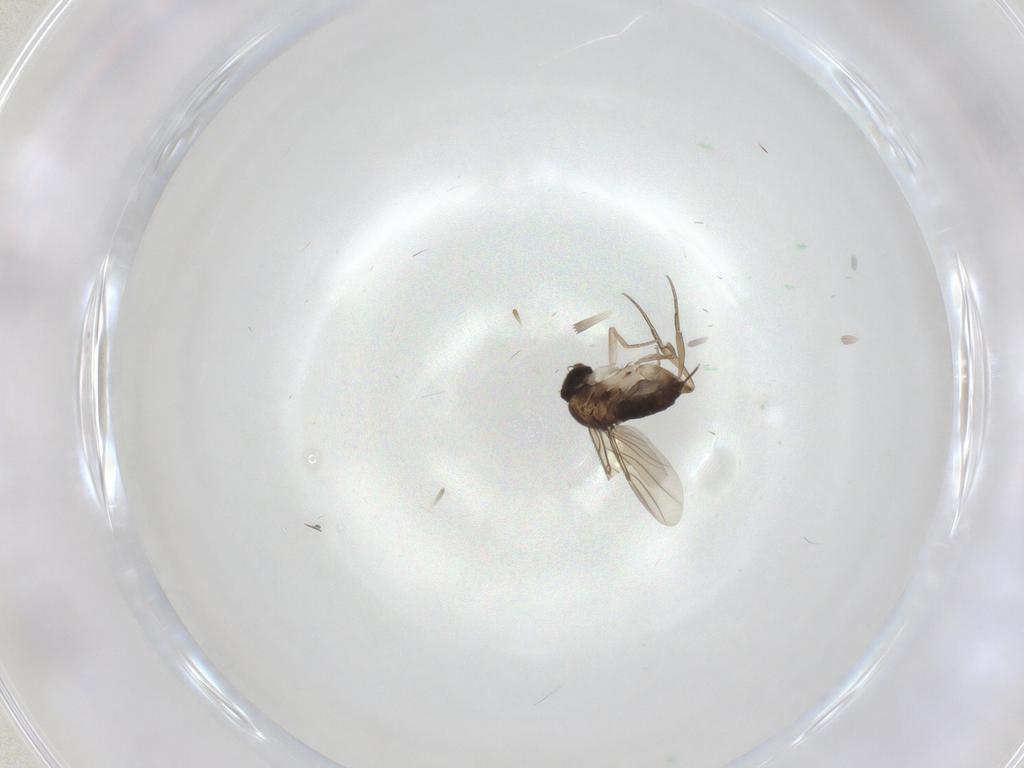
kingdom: Animalia
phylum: Arthropoda
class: Insecta
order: Diptera
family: Phoridae
